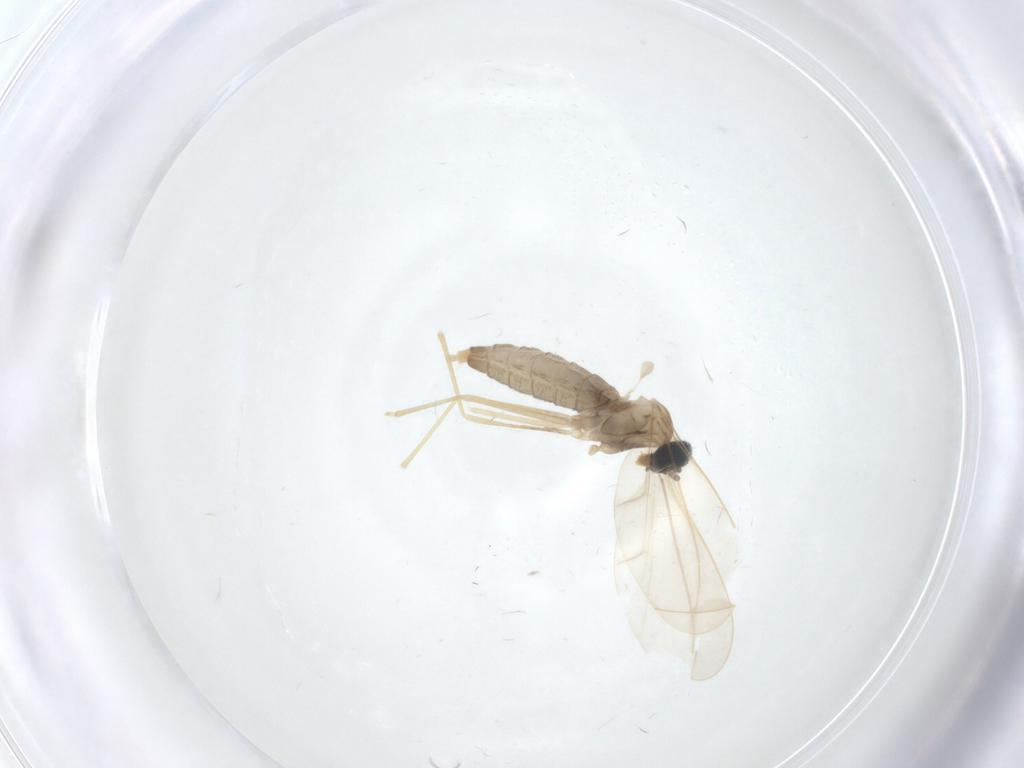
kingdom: Animalia
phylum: Arthropoda
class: Insecta
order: Diptera
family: Cecidomyiidae
